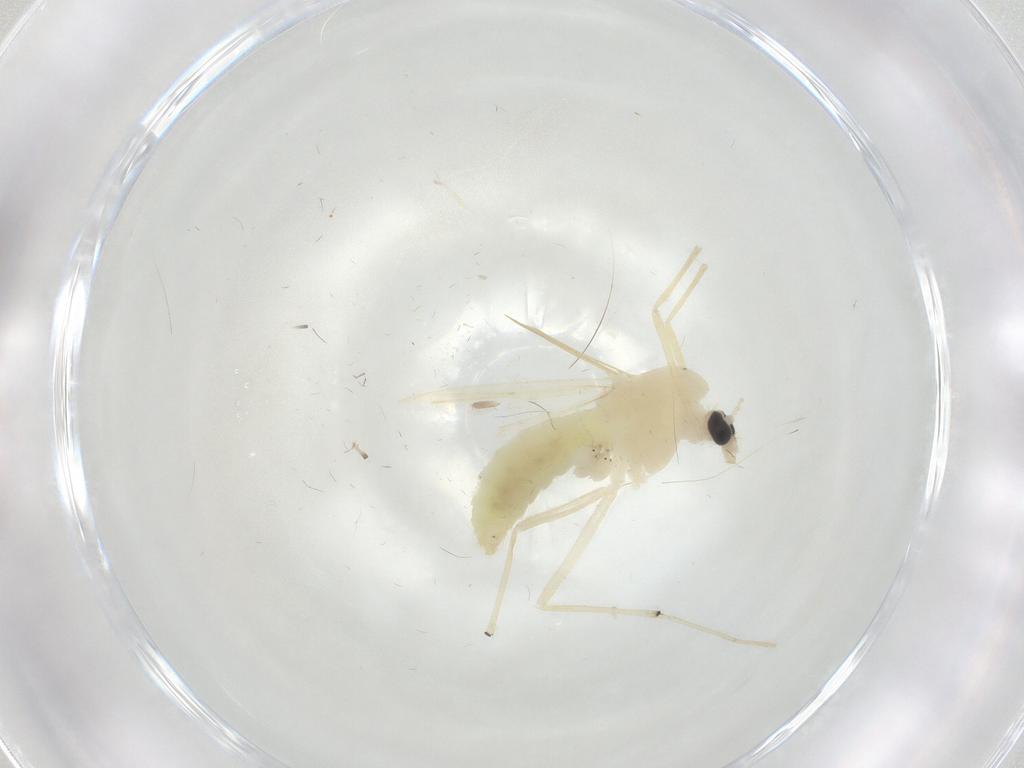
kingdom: Animalia
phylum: Arthropoda
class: Insecta
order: Diptera
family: Chironomidae
